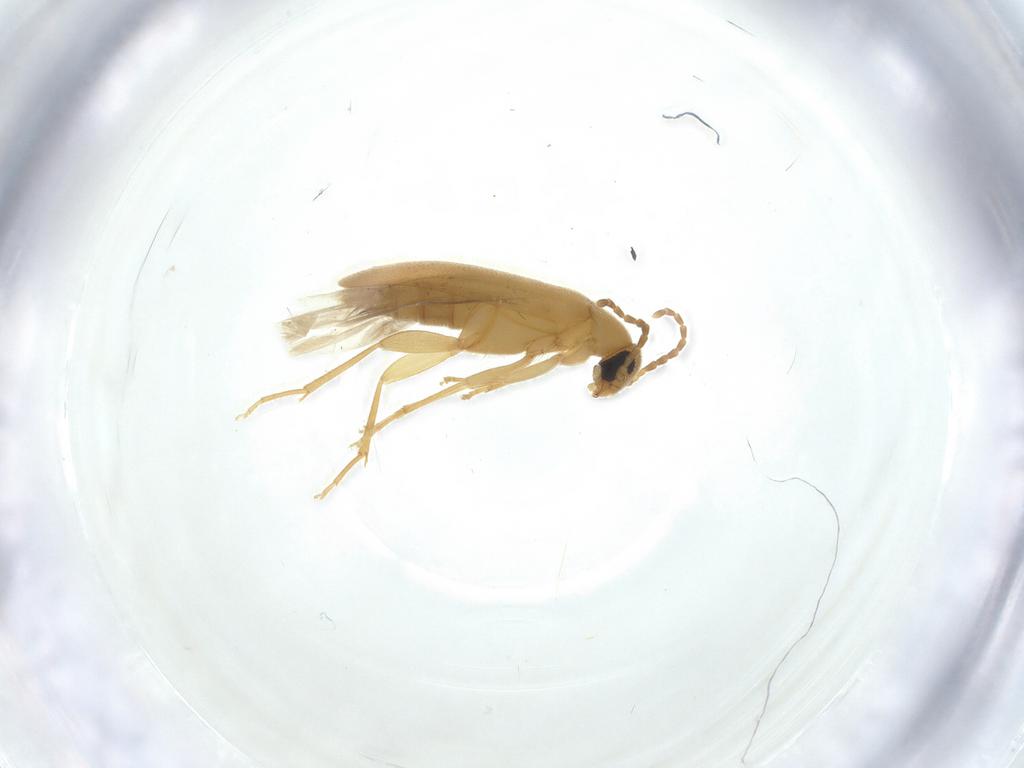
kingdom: Animalia
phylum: Arthropoda
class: Insecta
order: Coleoptera
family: Scraptiidae
